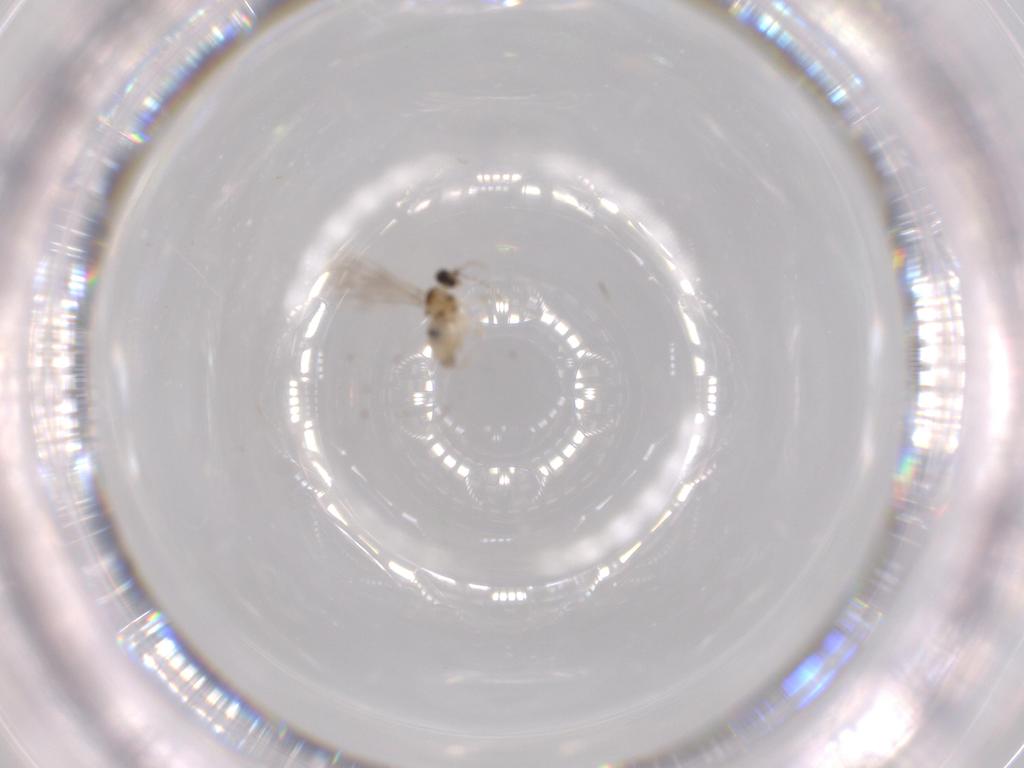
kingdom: Animalia
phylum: Arthropoda
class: Insecta
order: Diptera
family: Cecidomyiidae
